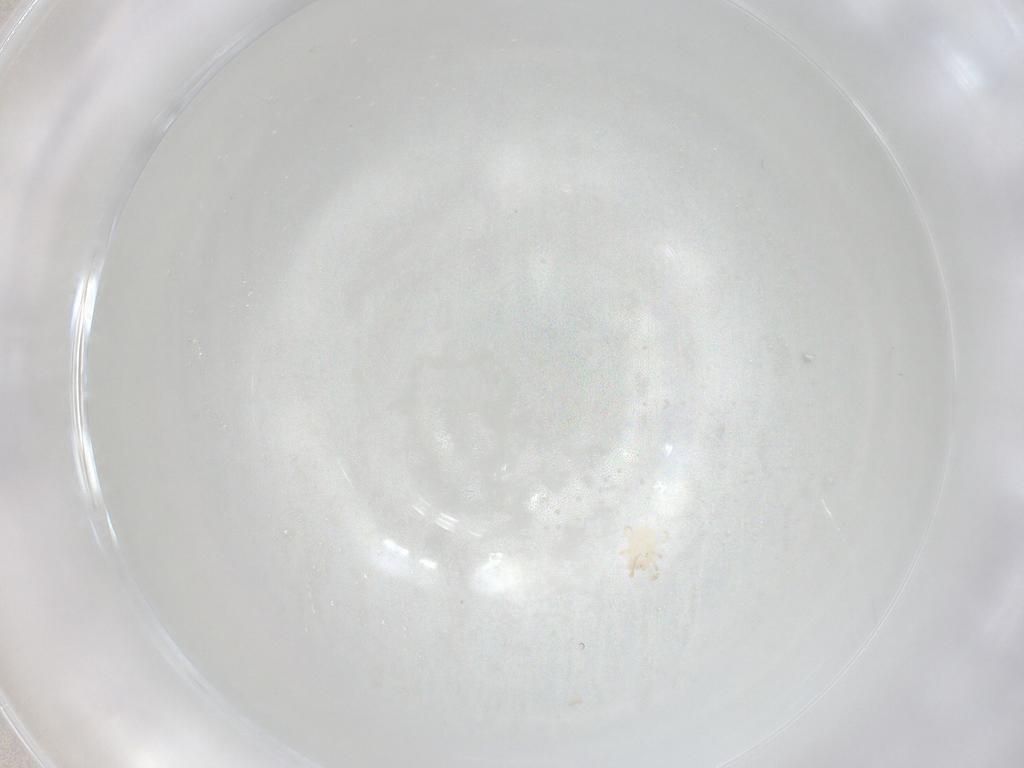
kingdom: Animalia
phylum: Arthropoda
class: Arachnida
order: Mesostigmata
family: Phytoseiidae
